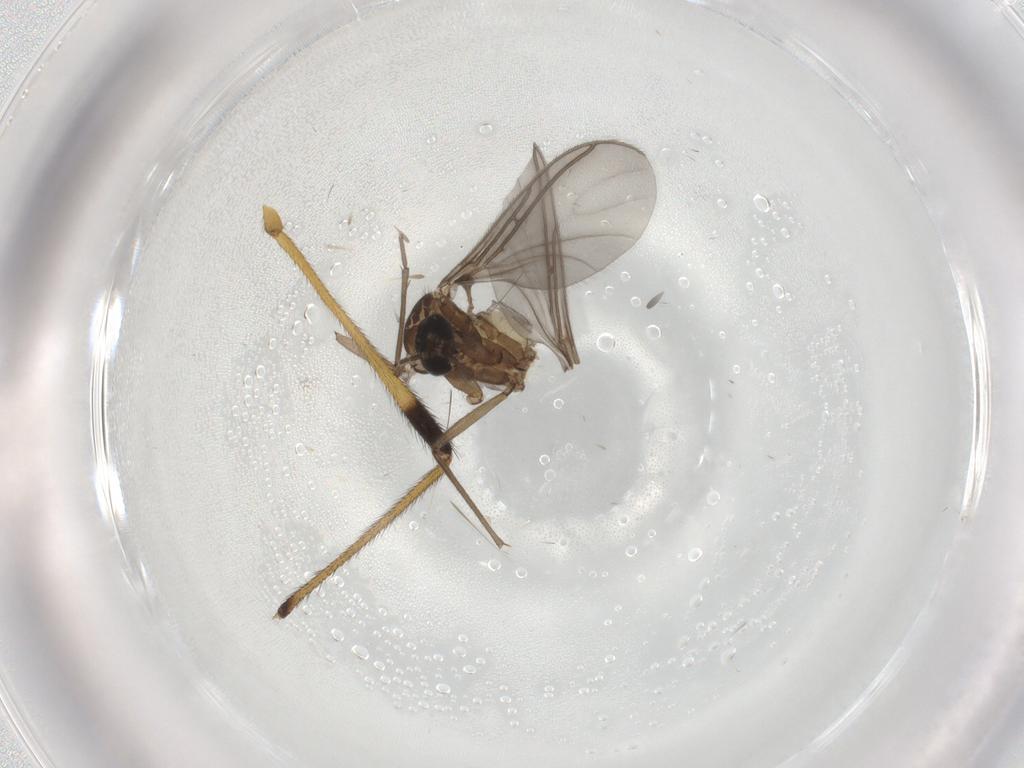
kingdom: Animalia
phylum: Arthropoda
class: Insecta
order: Diptera
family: Sciaridae
